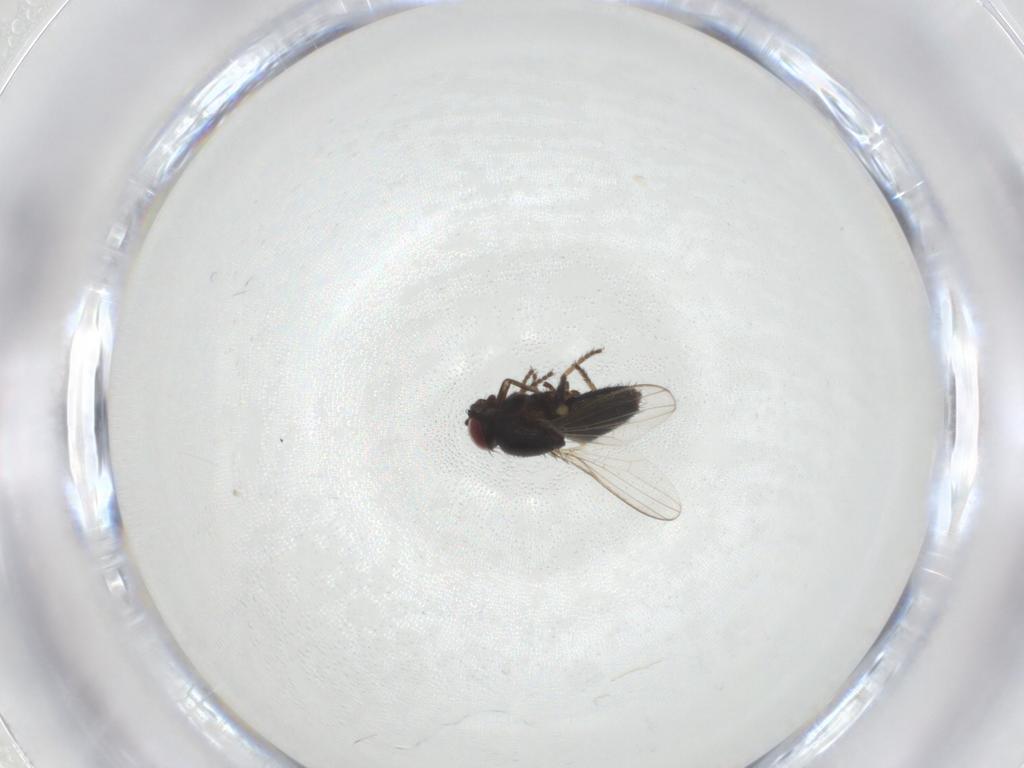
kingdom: Animalia
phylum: Arthropoda
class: Insecta
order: Diptera
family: Milichiidae
